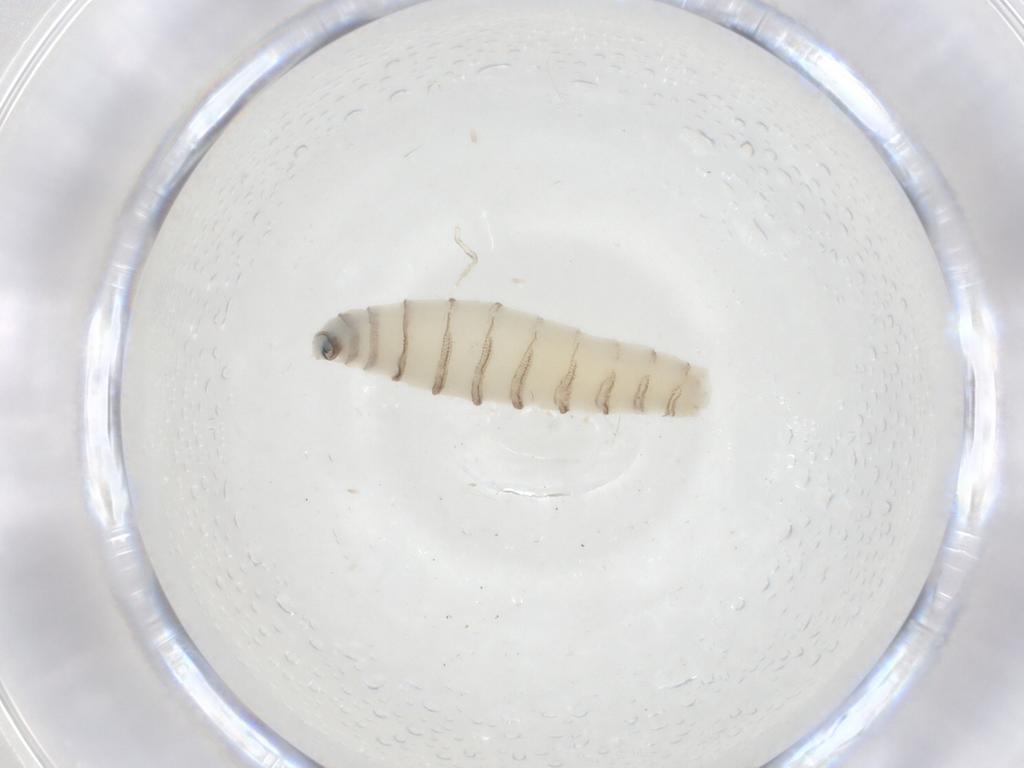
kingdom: Animalia
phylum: Arthropoda
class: Insecta
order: Diptera
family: Sarcophagidae
